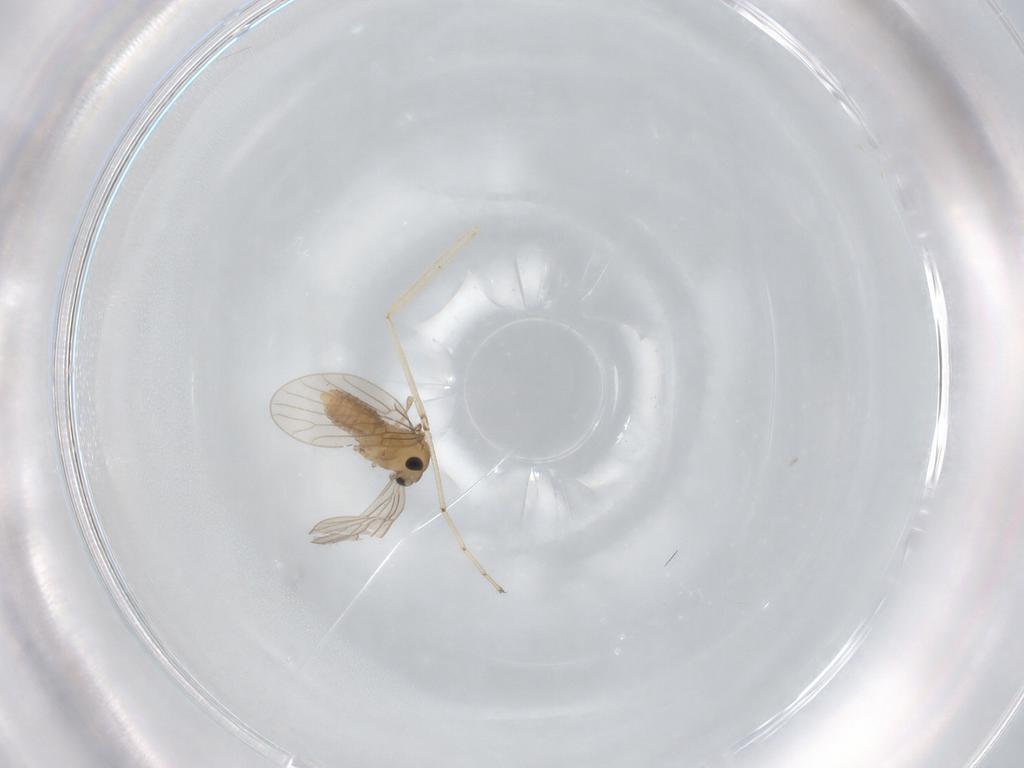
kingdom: Animalia
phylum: Arthropoda
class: Insecta
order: Diptera
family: Psychodidae
